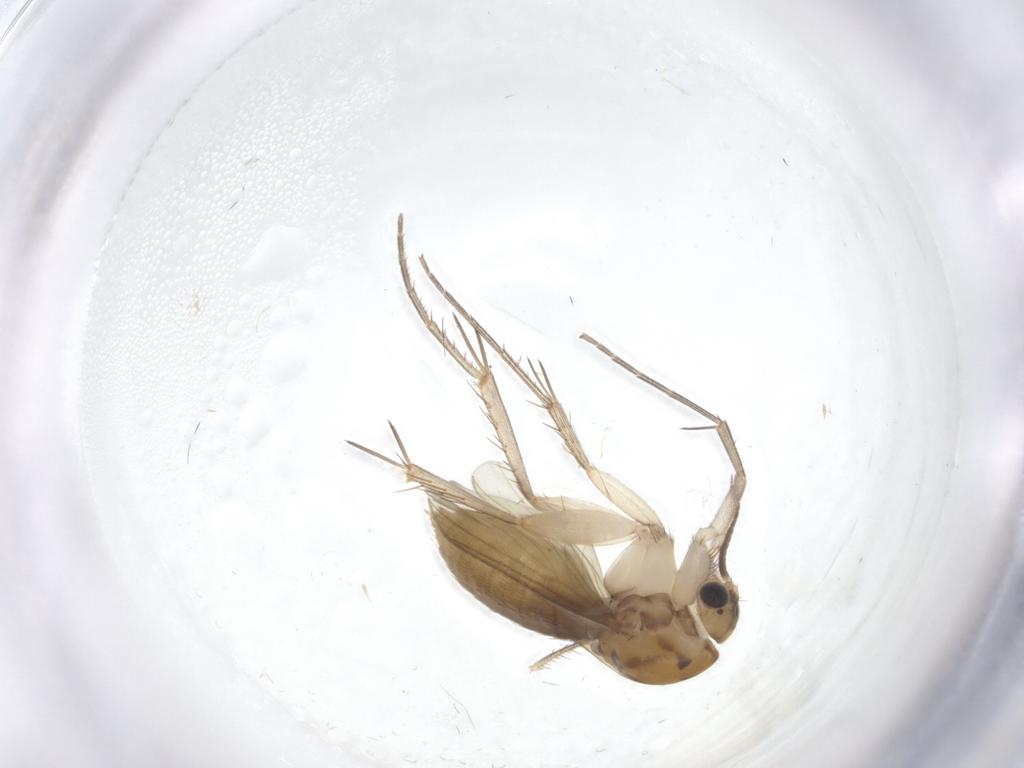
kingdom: Animalia
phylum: Arthropoda
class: Insecta
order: Diptera
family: Mycetophilidae
